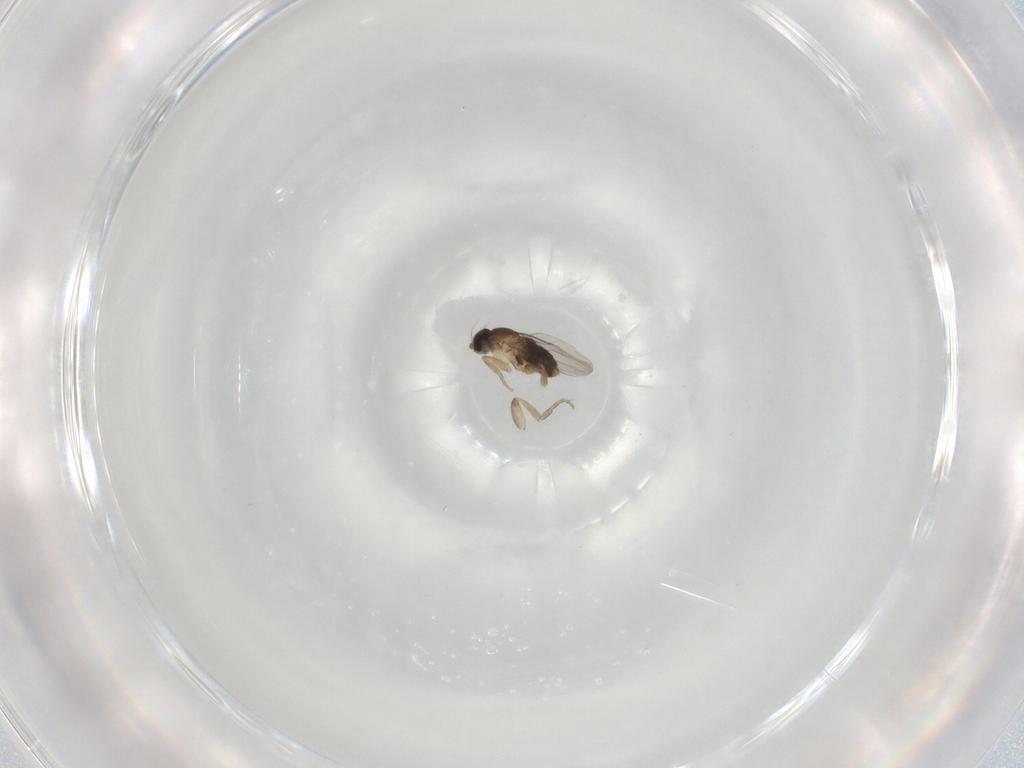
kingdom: Animalia
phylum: Arthropoda
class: Insecta
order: Diptera
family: Phoridae
